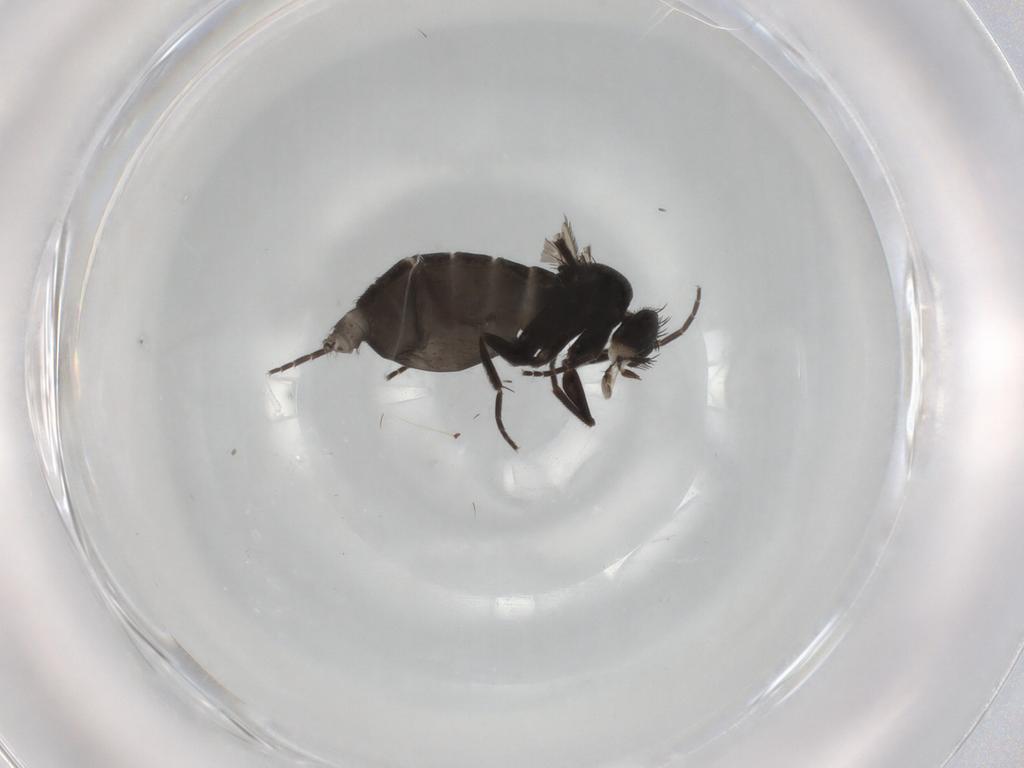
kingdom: Animalia
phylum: Arthropoda
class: Insecta
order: Diptera
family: Phoridae
